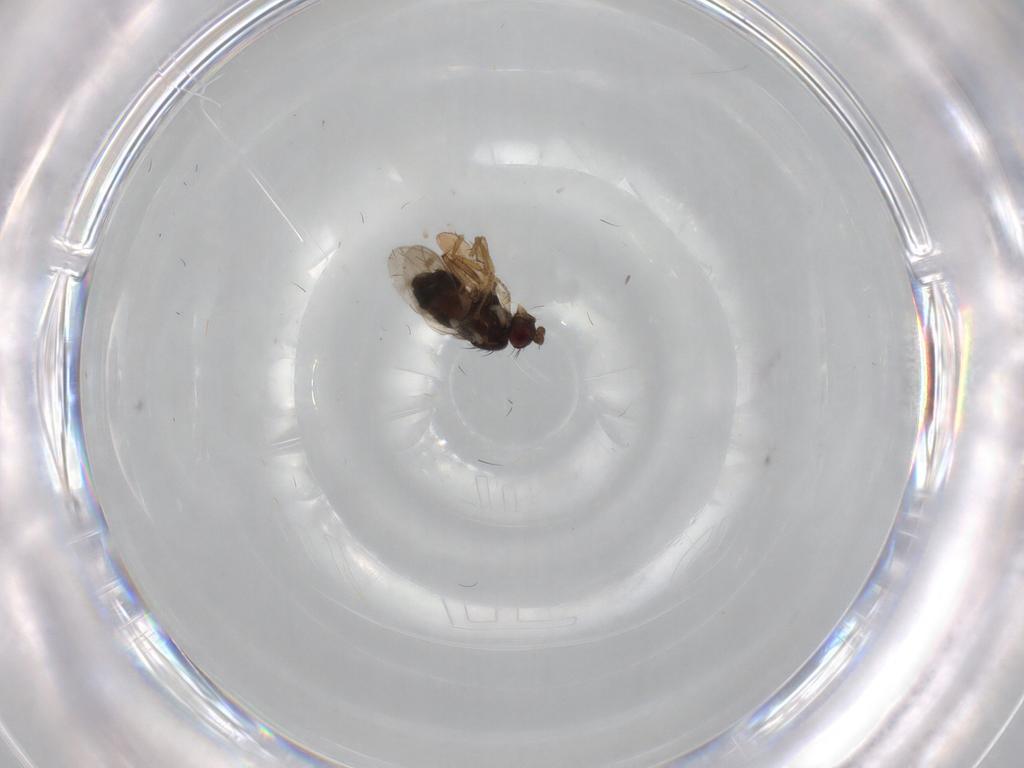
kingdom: Animalia
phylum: Arthropoda
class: Insecta
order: Diptera
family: Sphaeroceridae
